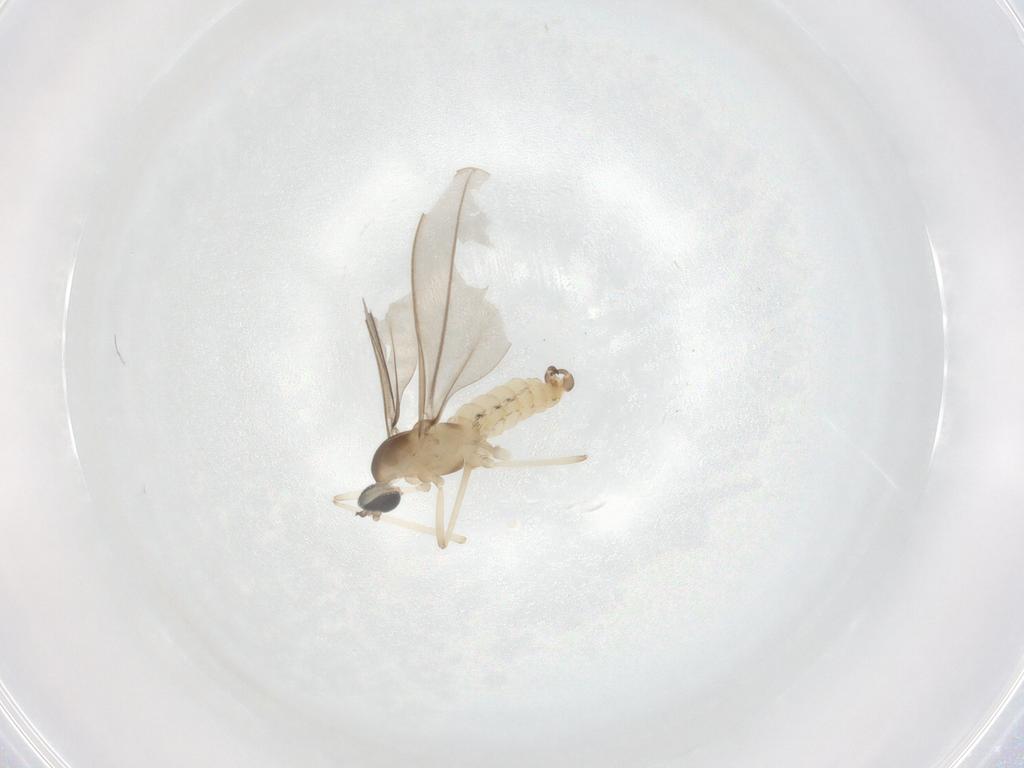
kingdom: Animalia
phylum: Arthropoda
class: Insecta
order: Diptera
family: Cecidomyiidae
